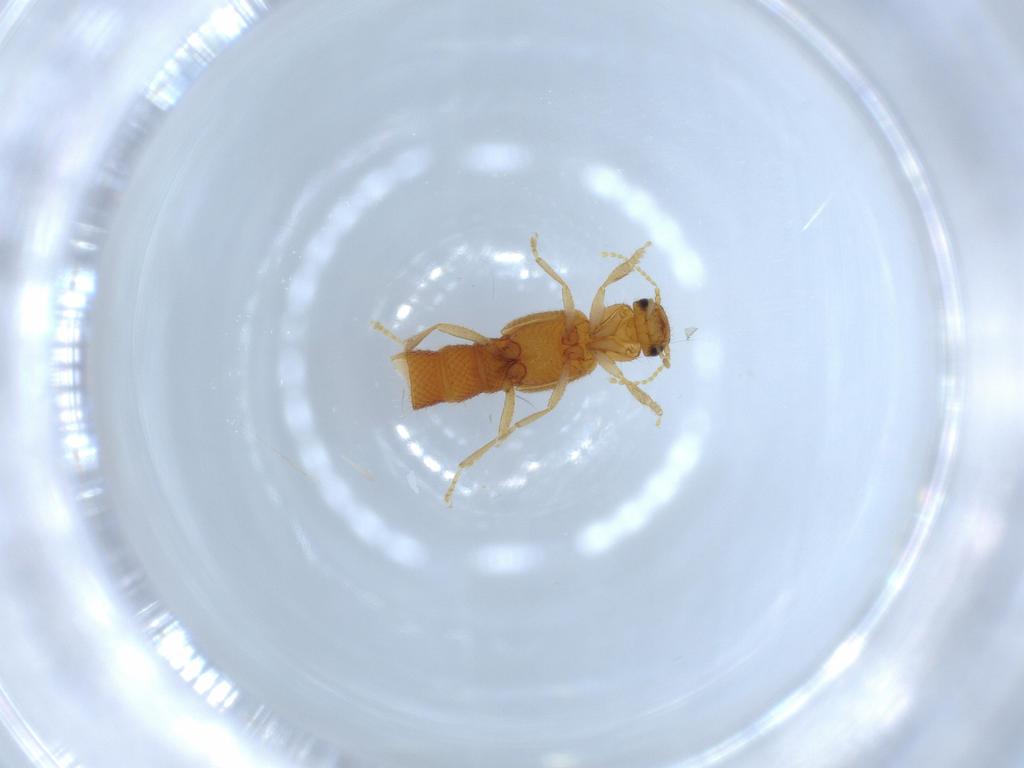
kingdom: Animalia
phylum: Arthropoda
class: Insecta
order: Coleoptera
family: Staphylinidae
